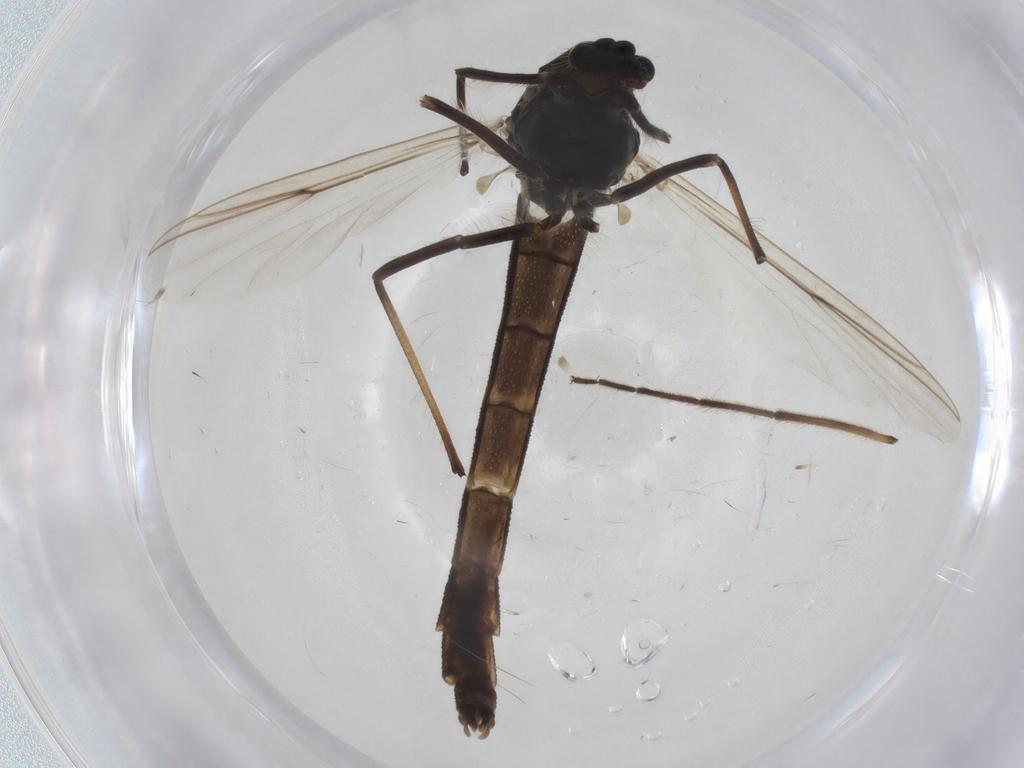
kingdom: Animalia
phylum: Arthropoda
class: Insecta
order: Diptera
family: Chironomidae
